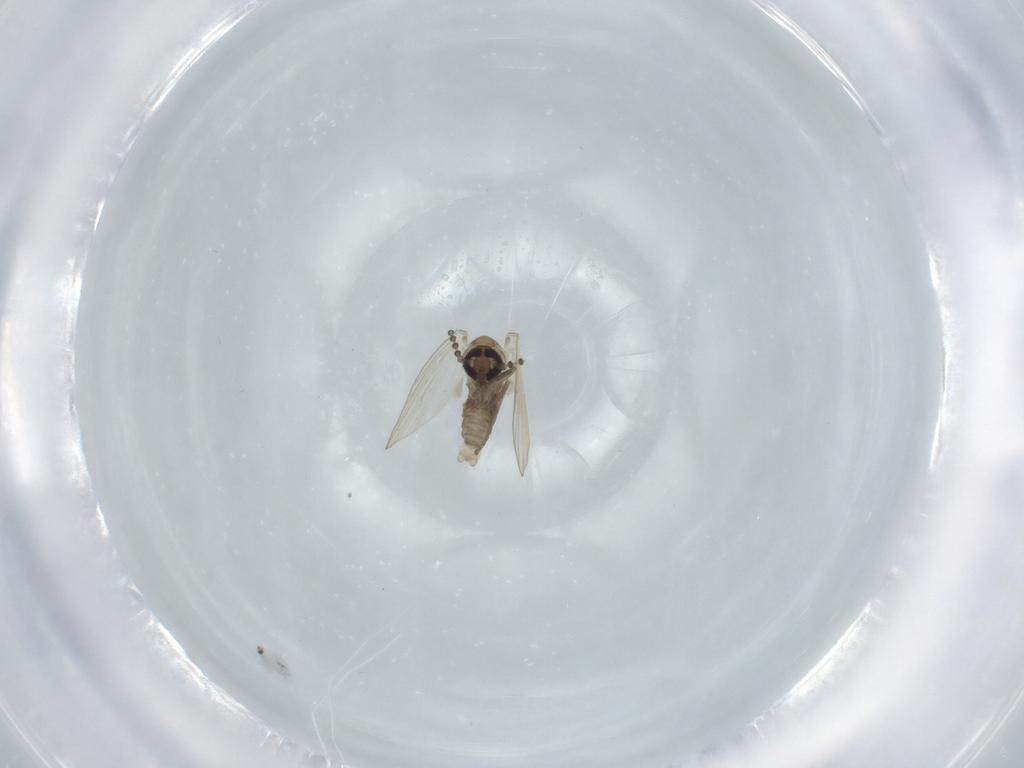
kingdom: Animalia
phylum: Arthropoda
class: Insecta
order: Diptera
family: Psychodidae
